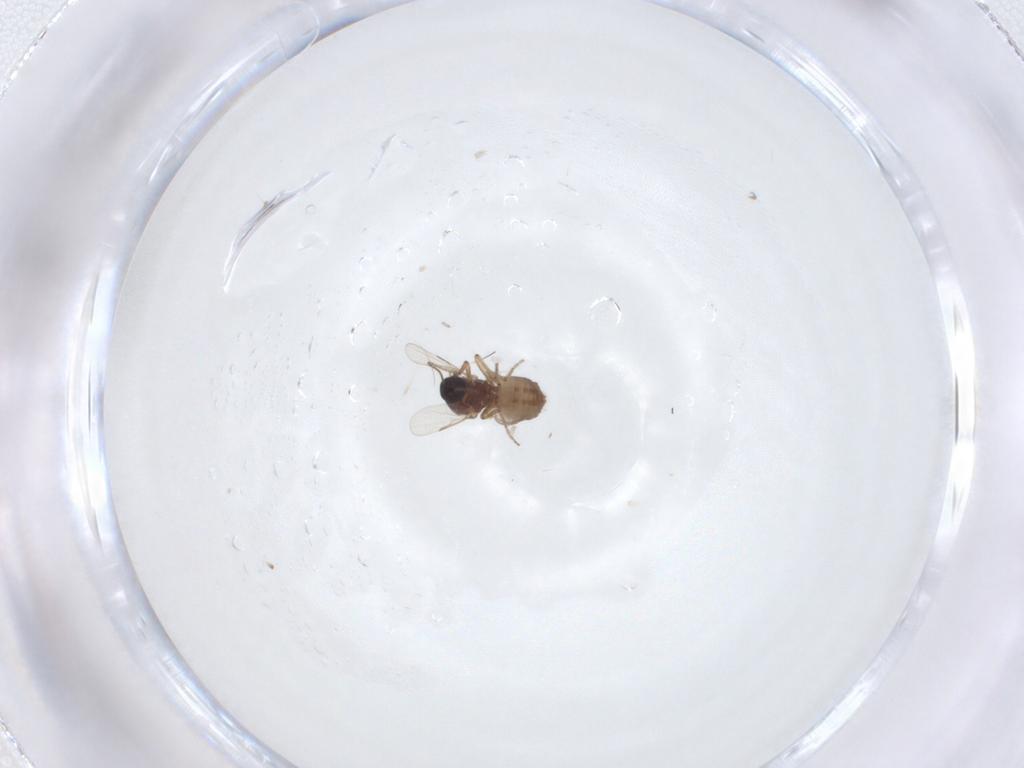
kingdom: Animalia
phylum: Arthropoda
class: Insecta
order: Diptera
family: Ceratopogonidae
